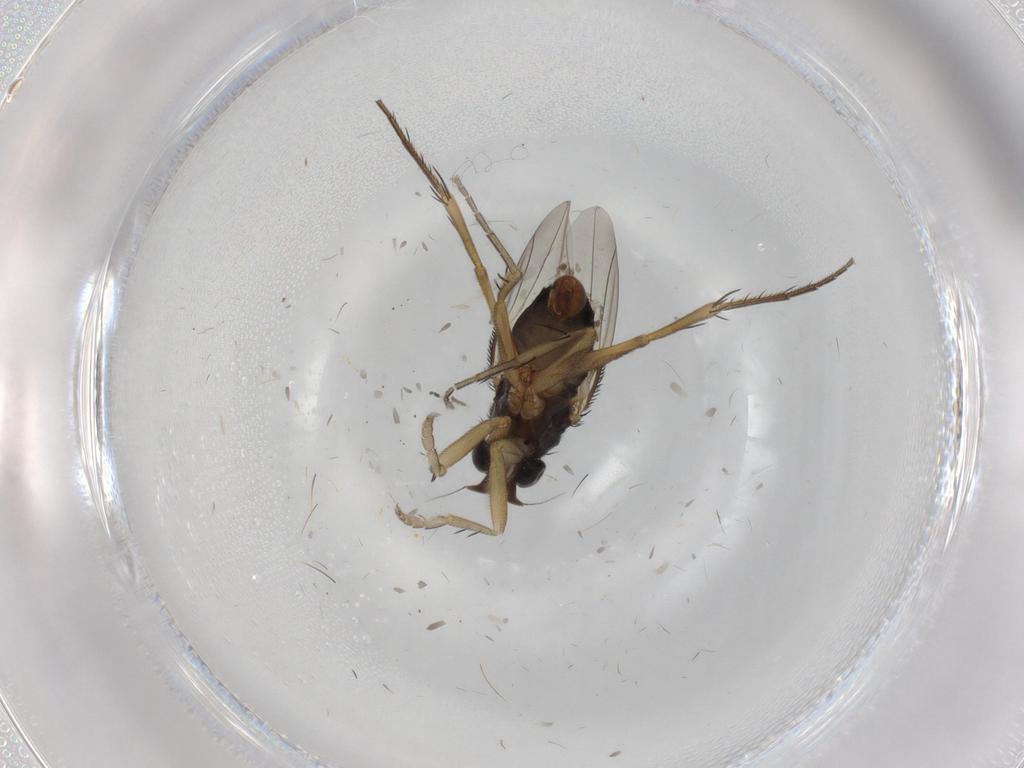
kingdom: Animalia
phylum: Arthropoda
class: Insecta
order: Diptera
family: Phoridae
